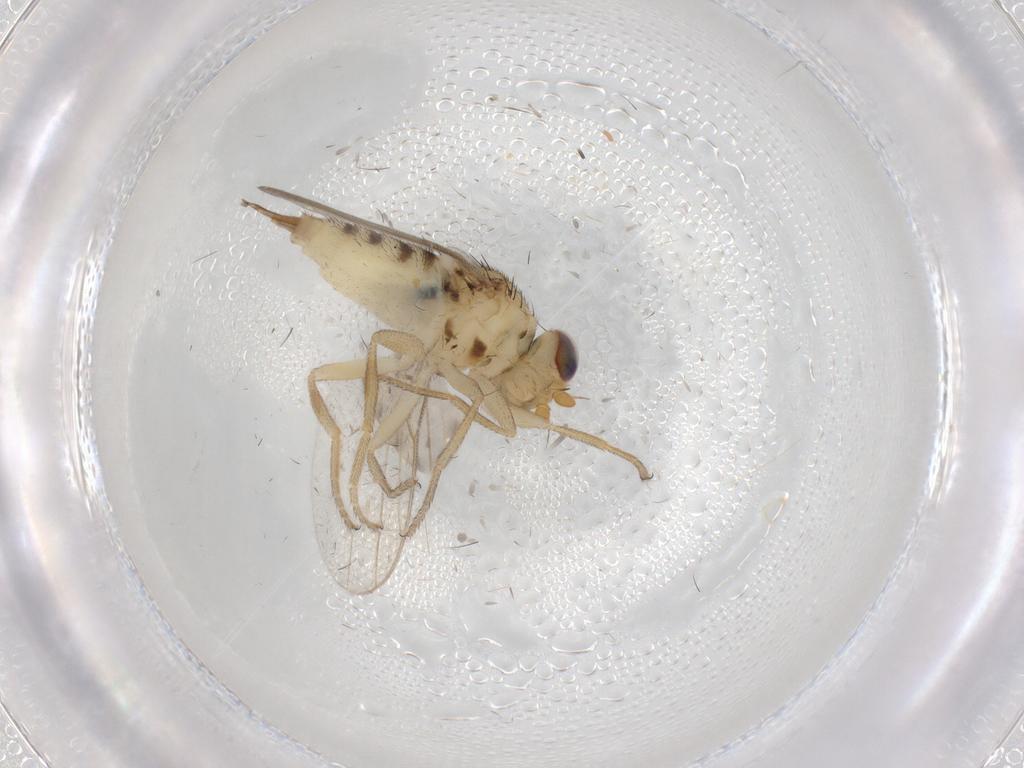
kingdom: Animalia
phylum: Arthropoda
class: Insecta
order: Diptera
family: Chloropidae
